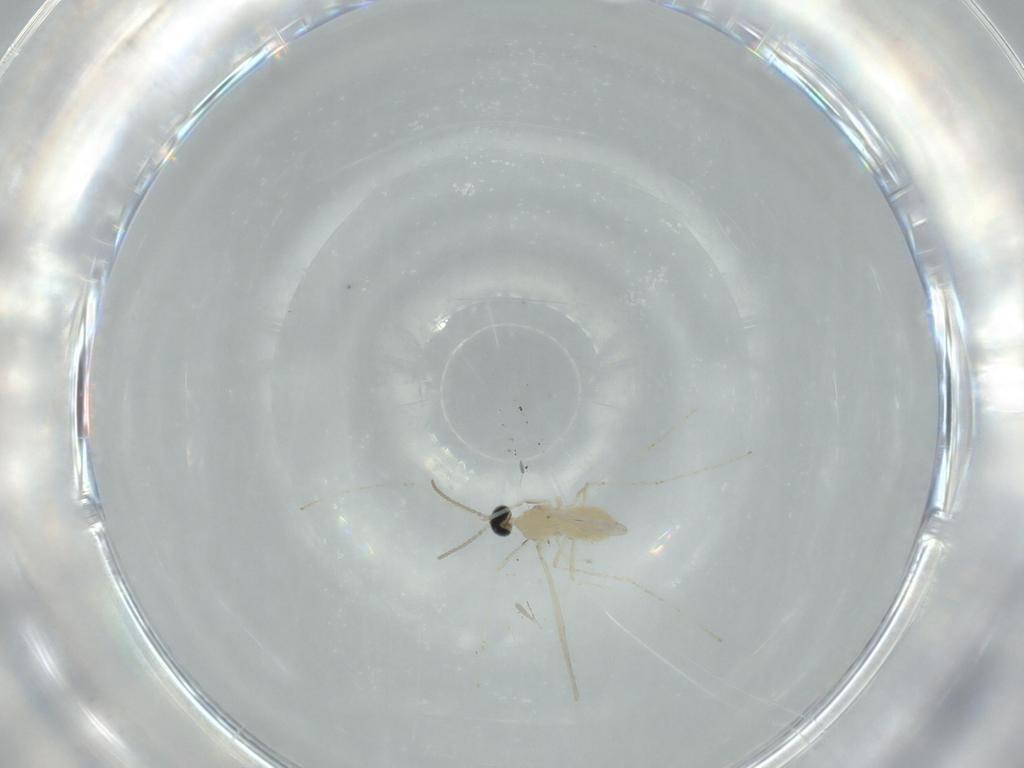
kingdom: Animalia
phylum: Arthropoda
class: Insecta
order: Diptera
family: Cecidomyiidae
